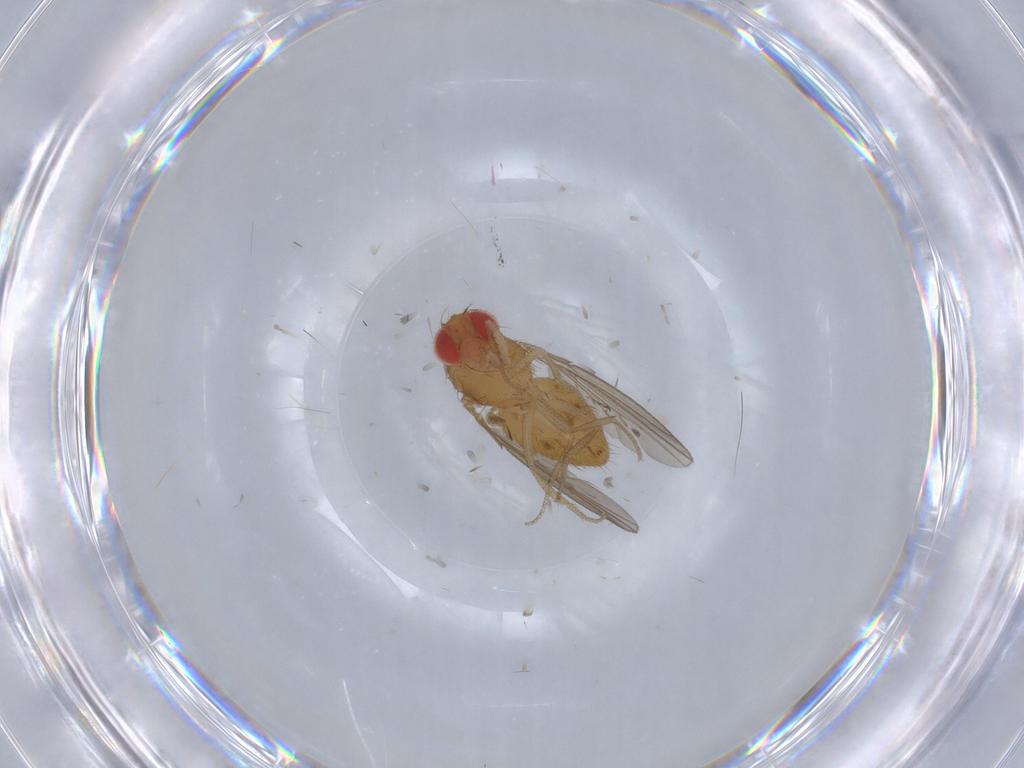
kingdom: Animalia
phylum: Arthropoda
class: Insecta
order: Diptera
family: Drosophilidae
